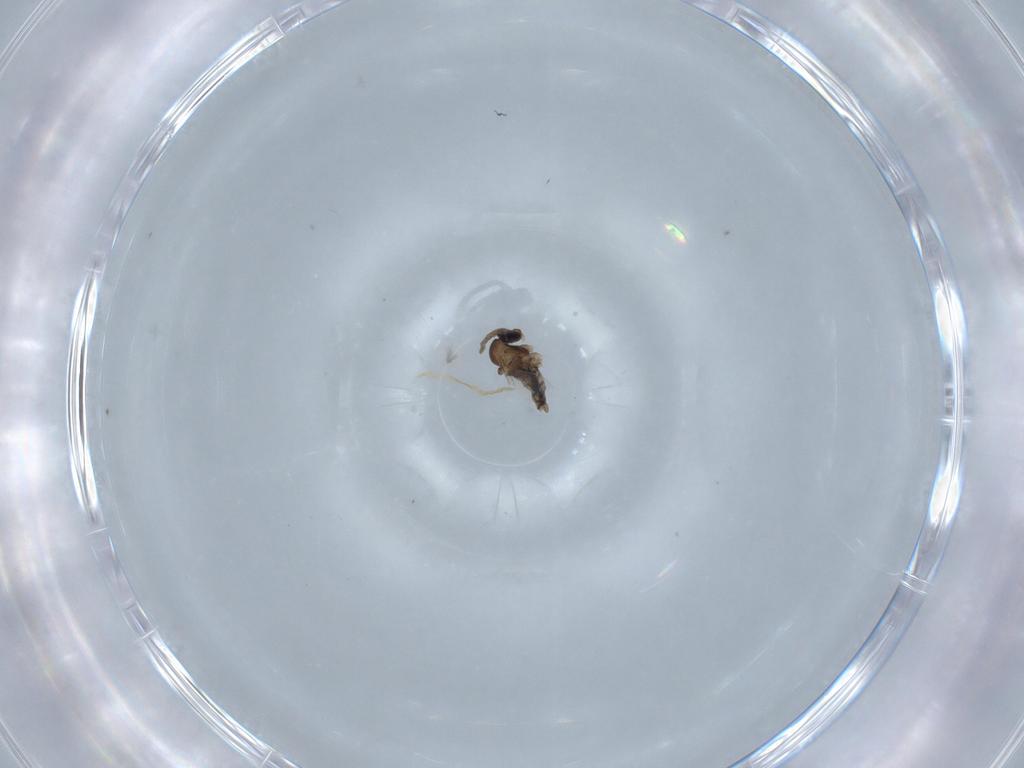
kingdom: Animalia
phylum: Arthropoda
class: Insecta
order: Diptera
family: Cecidomyiidae
